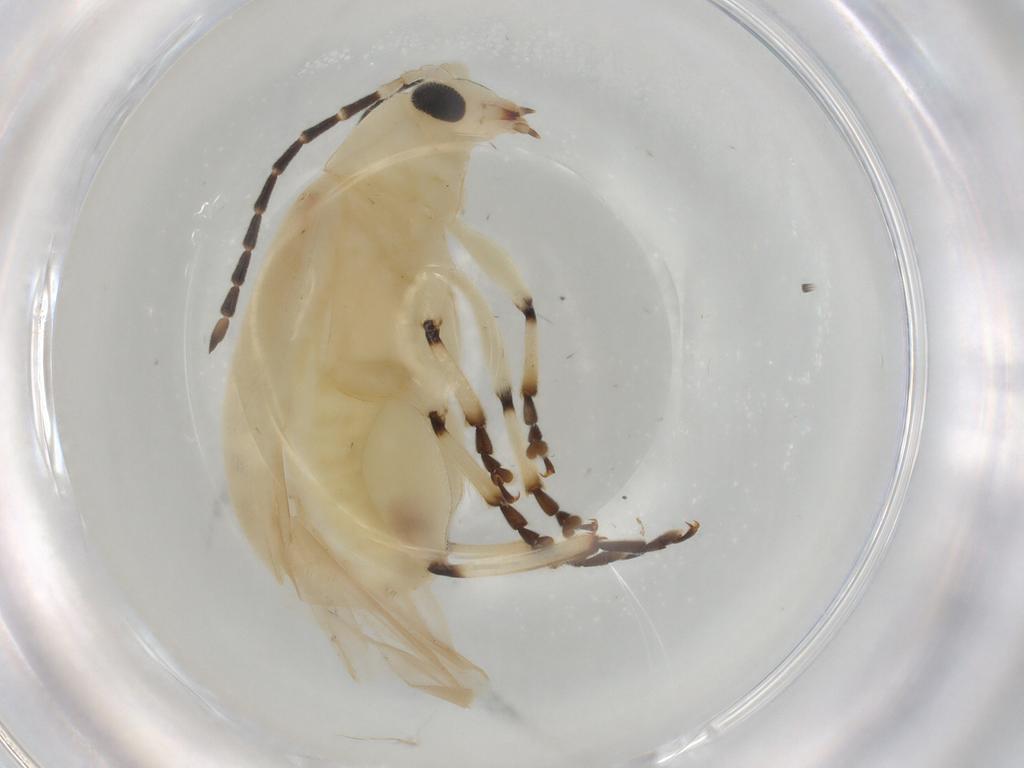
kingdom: Animalia
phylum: Arthropoda
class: Insecta
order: Coleoptera
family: Chrysomelidae
